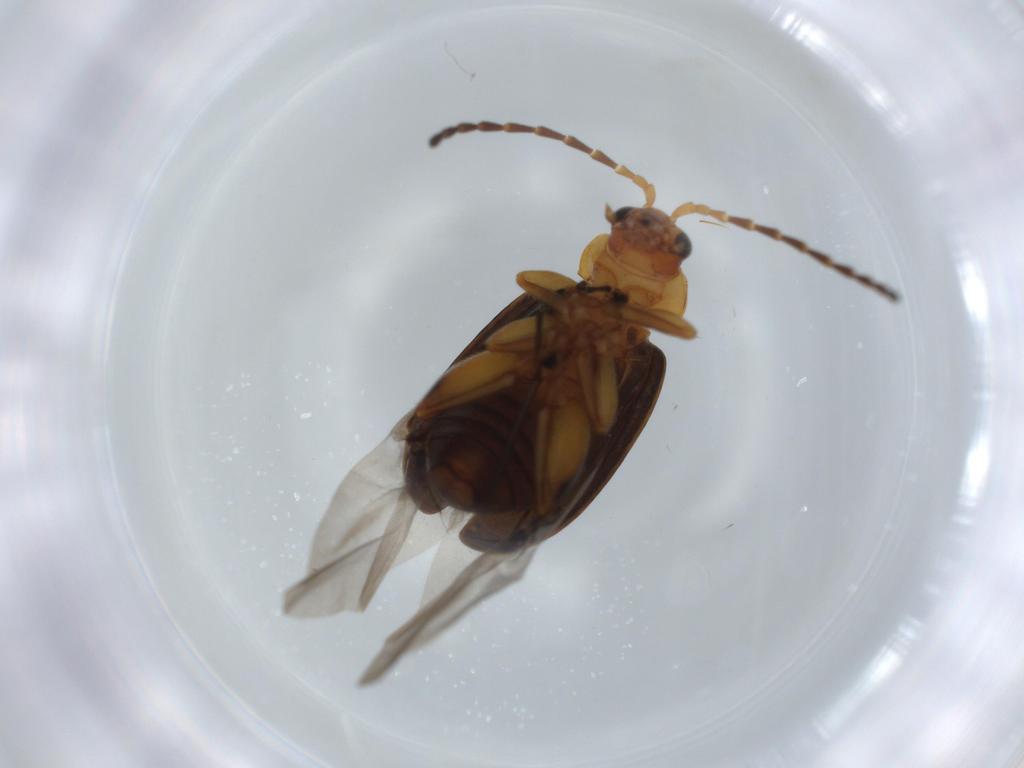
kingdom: Animalia
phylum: Arthropoda
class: Insecta
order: Coleoptera
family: Chrysomelidae
